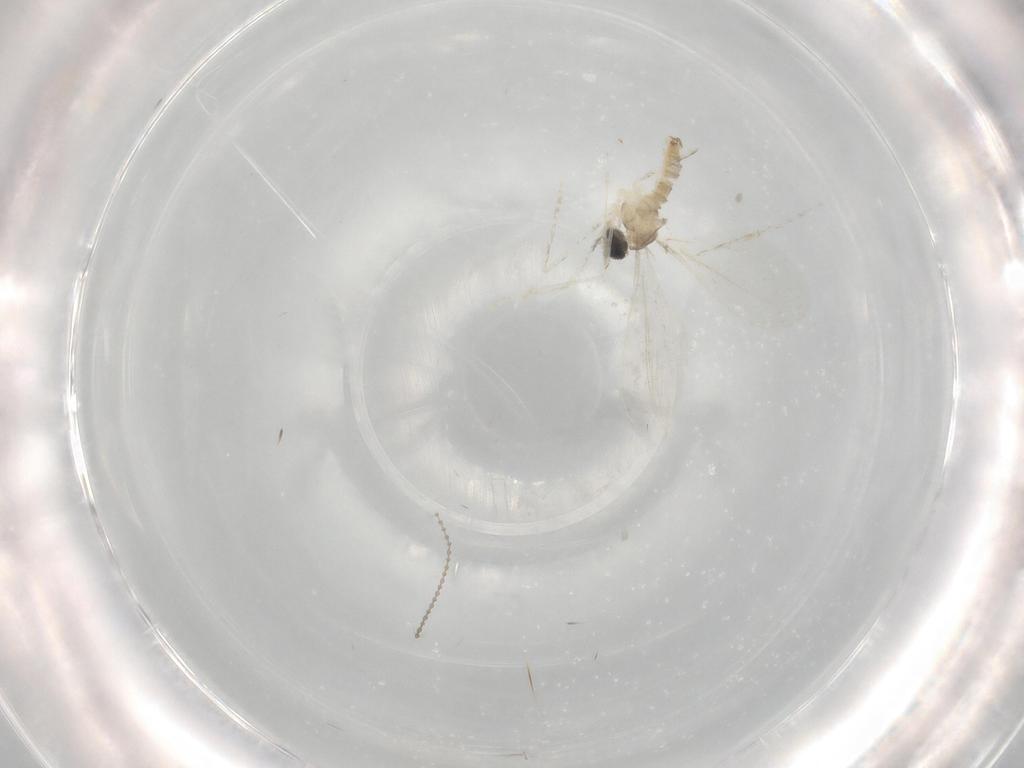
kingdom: Animalia
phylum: Arthropoda
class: Insecta
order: Diptera
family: Cecidomyiidae
